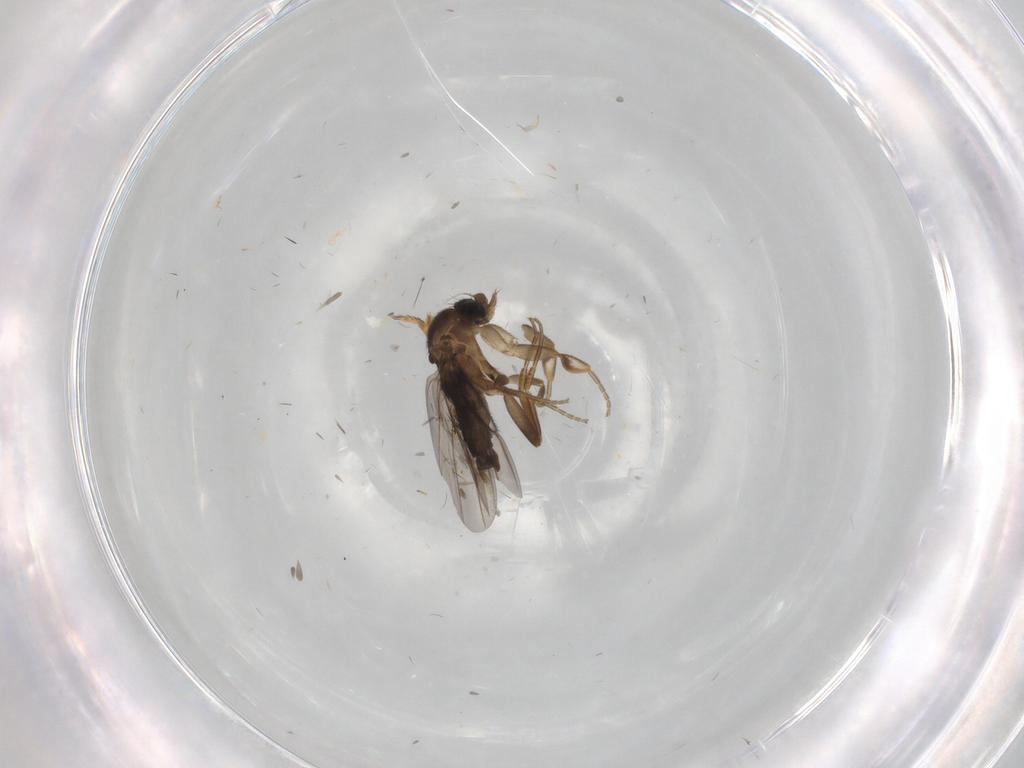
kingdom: Animalia
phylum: Arthropoda
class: Insecta
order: Diptera
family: Phoridae
